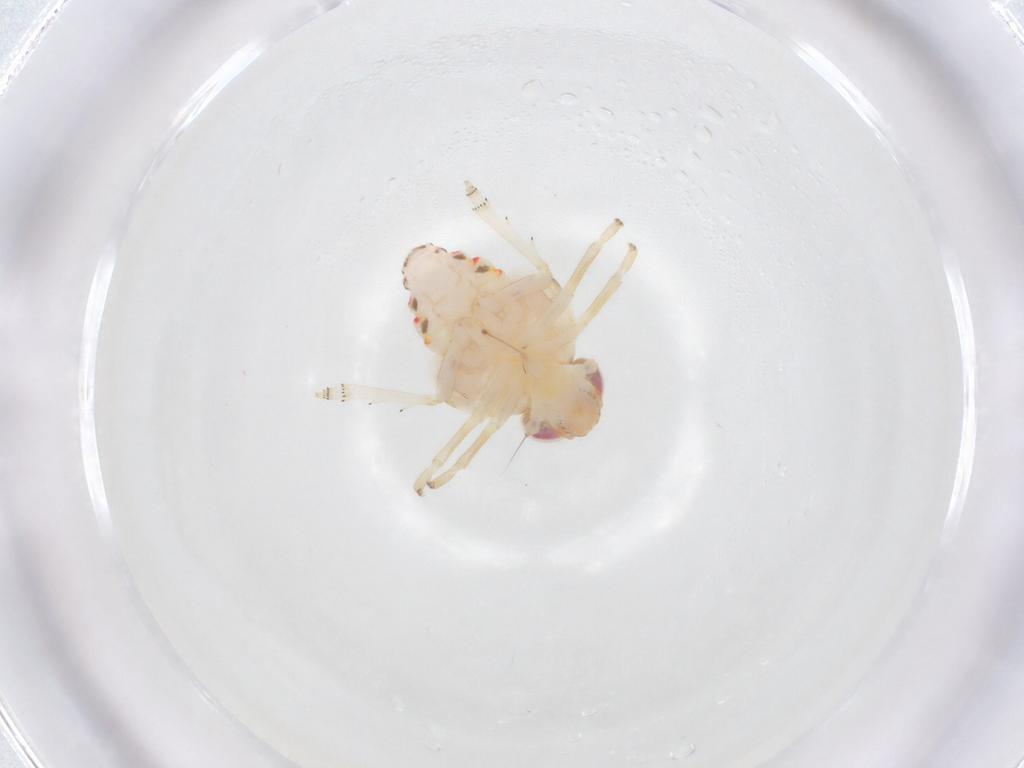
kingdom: Animalia
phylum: Arthropoda
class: Insecta
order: Hemiptera
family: Nogodinidae
